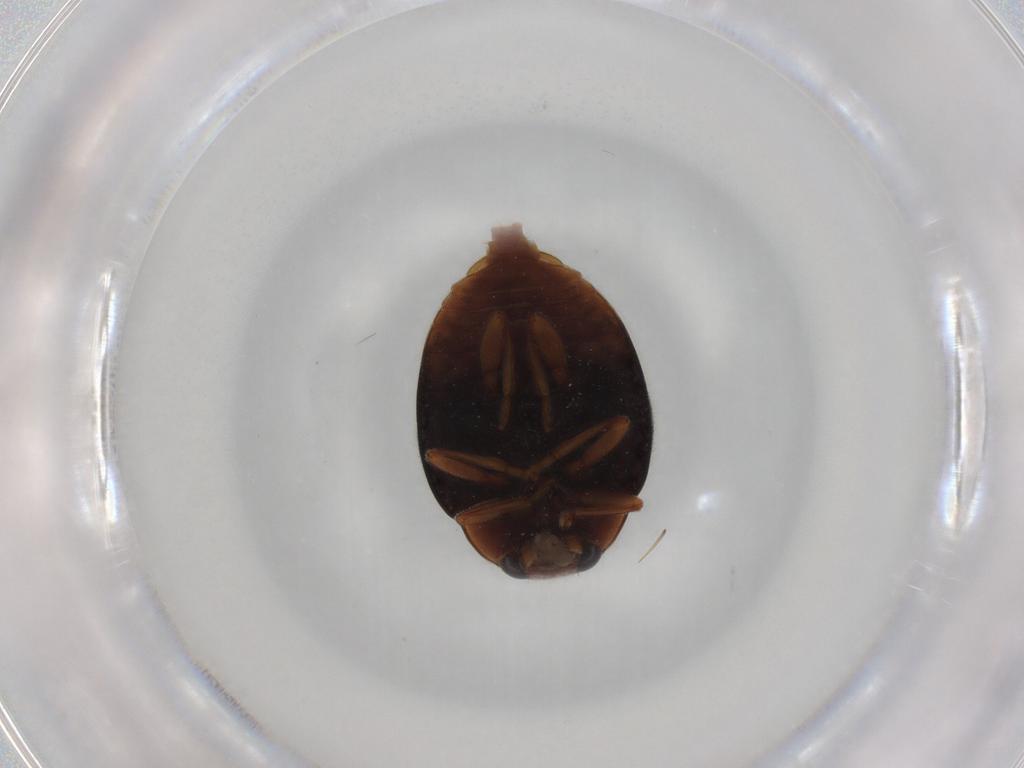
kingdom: Animalia
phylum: Arthropoda
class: Insecta
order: Coleoptera
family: Coccinellidae
